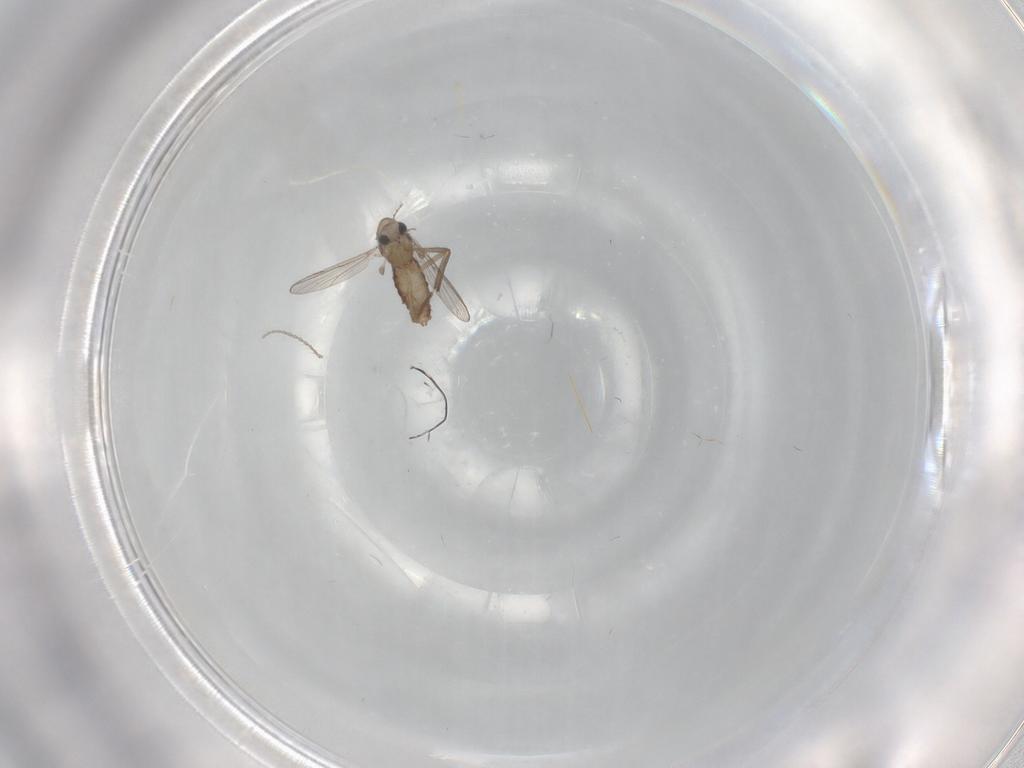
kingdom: Animalia
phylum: Arthropoda
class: Insecta
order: Diptera
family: Chironomidae
